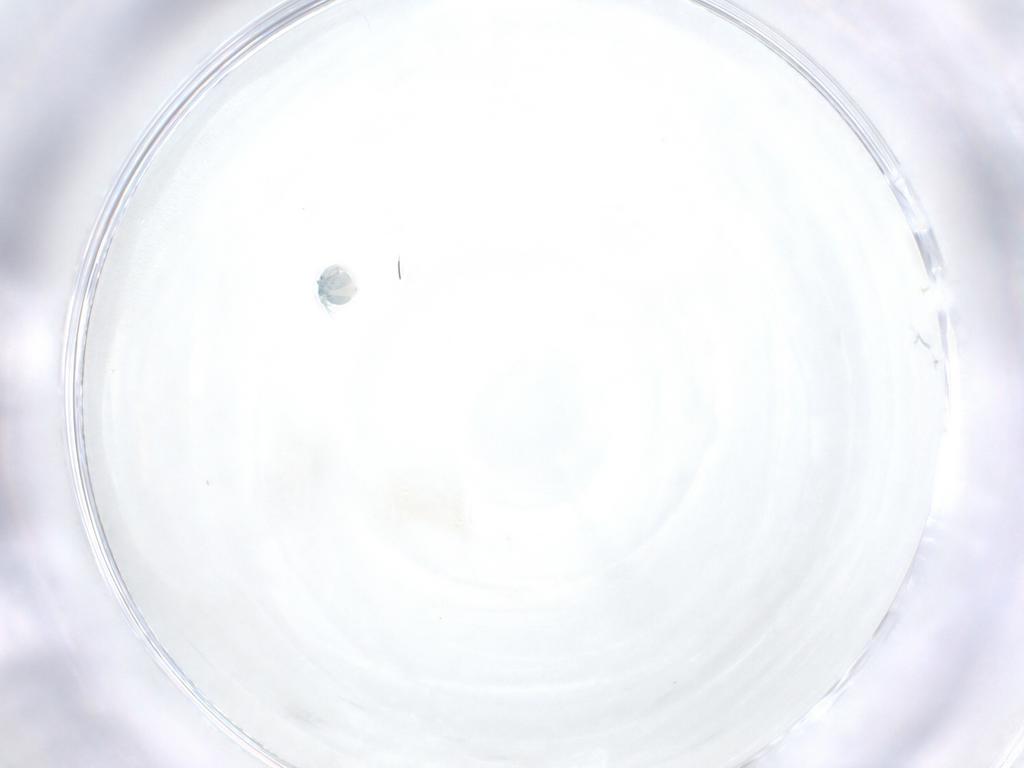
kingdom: Animalia
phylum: Arthropoda
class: Arachnida
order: Trombidiformes
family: Arrenuridae
